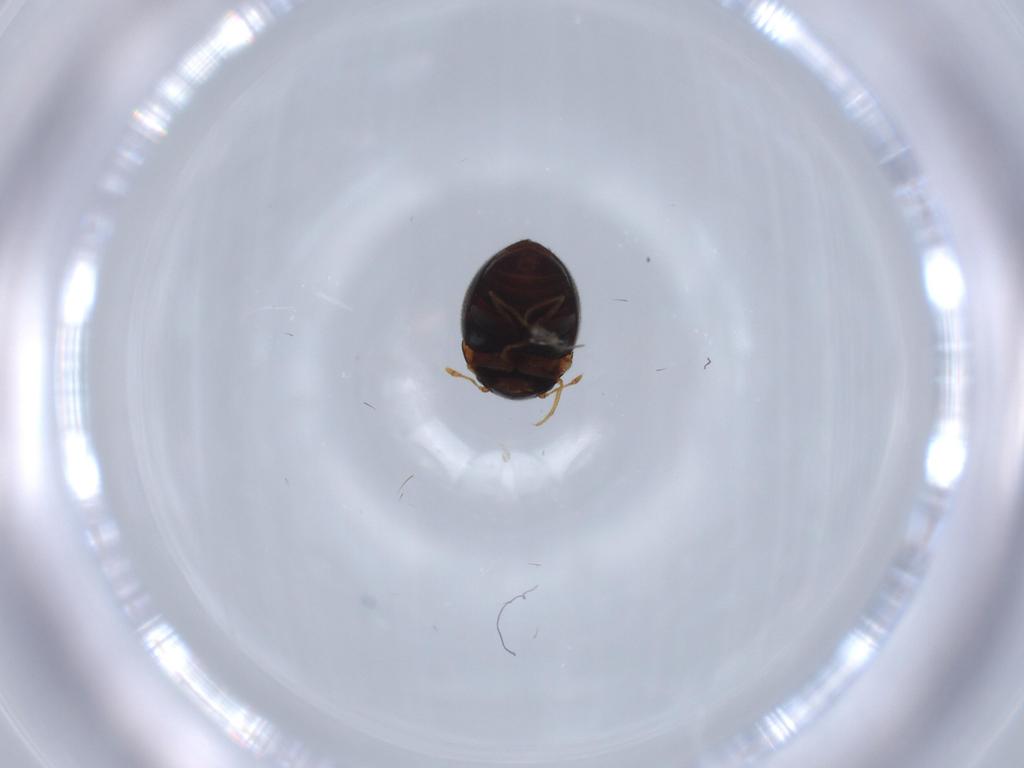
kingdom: Animalia
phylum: Arthropoda
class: Insecta
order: Coleoptera
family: Clambidae
